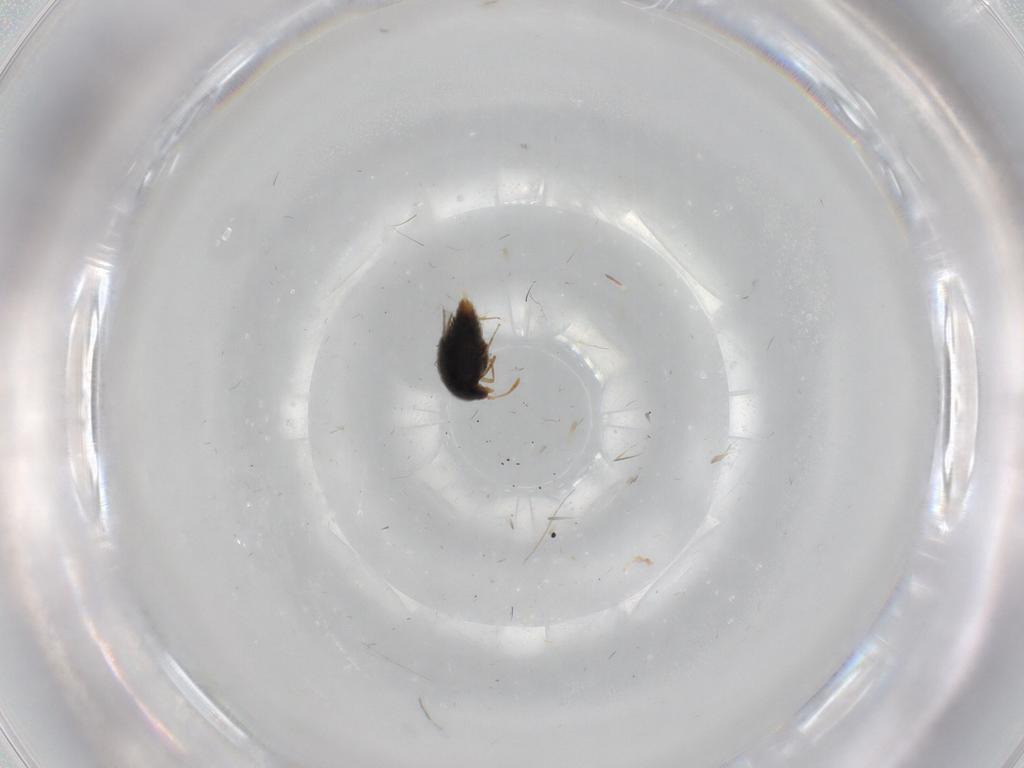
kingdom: Animalia
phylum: Arthropoda
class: Insecta
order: Coleoptera
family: Staphylinidae
